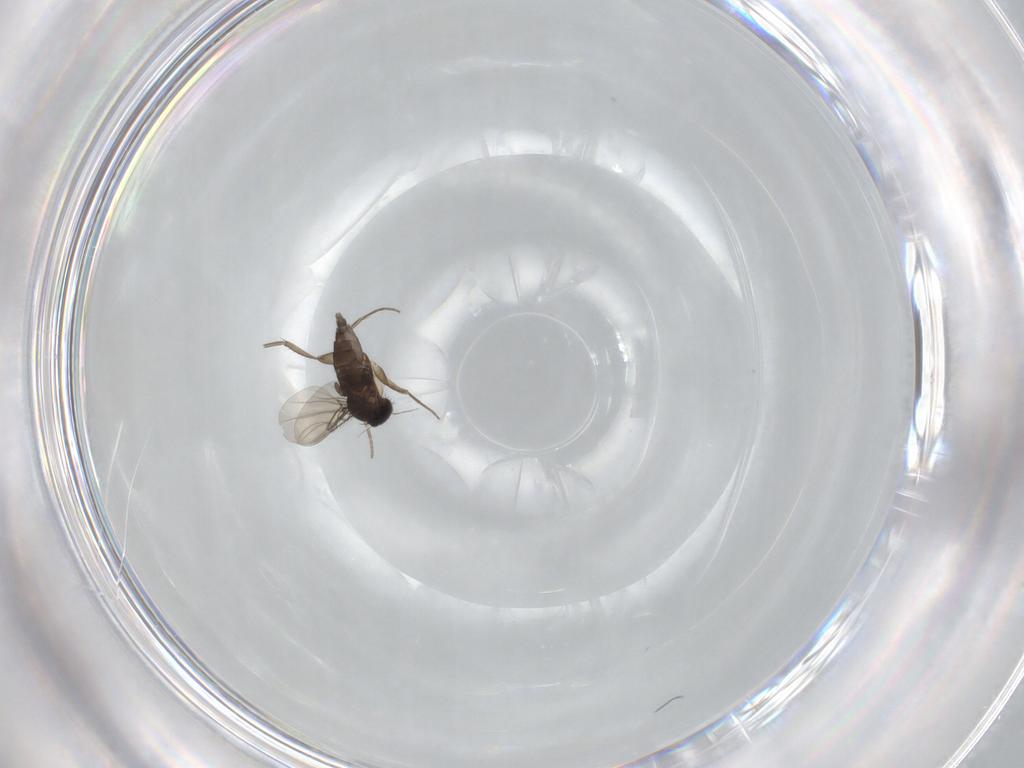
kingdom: Animalia
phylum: Arthropoda
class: Insecta
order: Diptera
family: Phoridae
